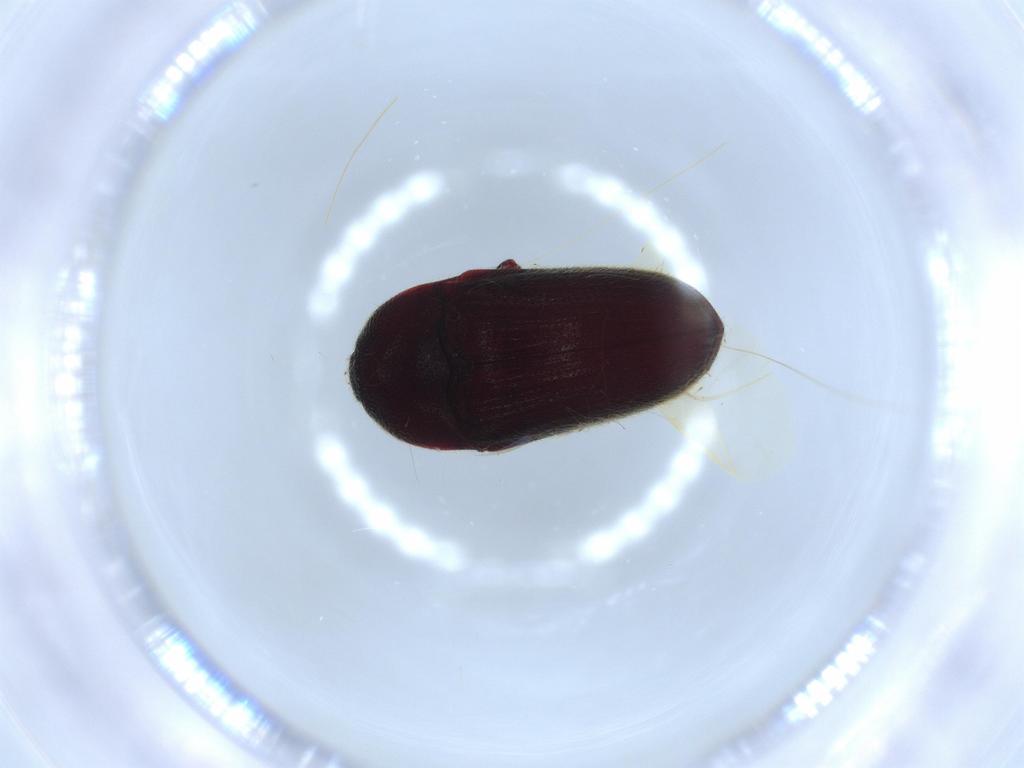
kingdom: Animalia
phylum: Arthropoda
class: Insecta
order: Coleoptera
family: Throscidae
